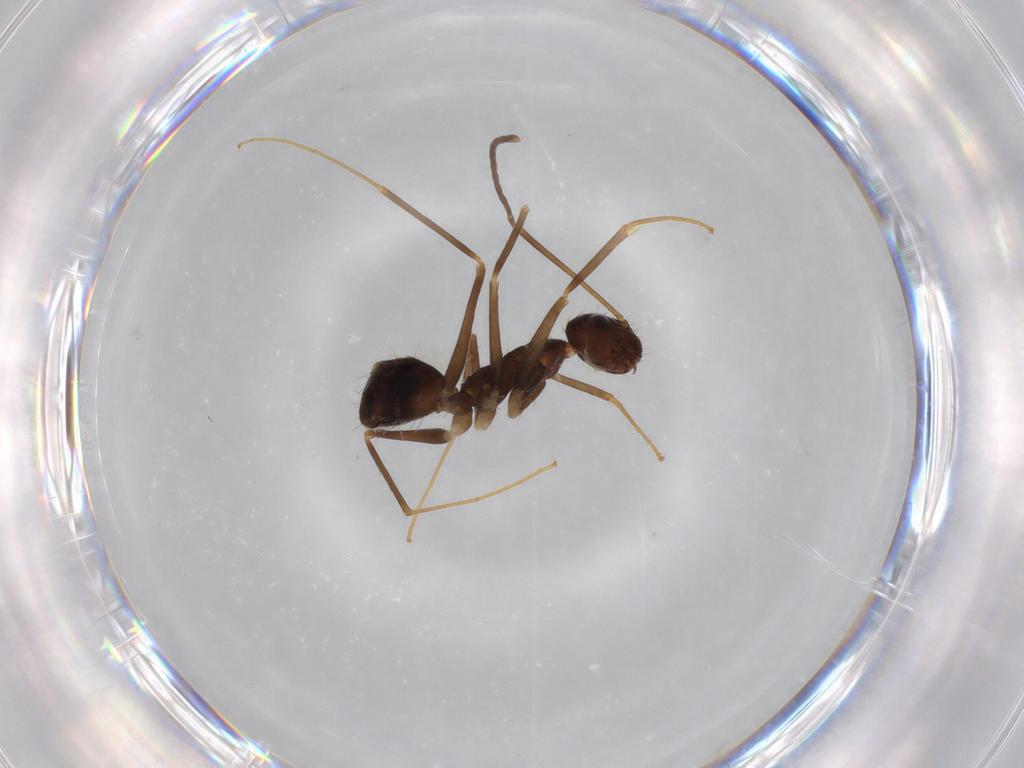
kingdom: Animalia
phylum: Arthropoda
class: Insecta
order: Hymenoptera
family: Formicidae
